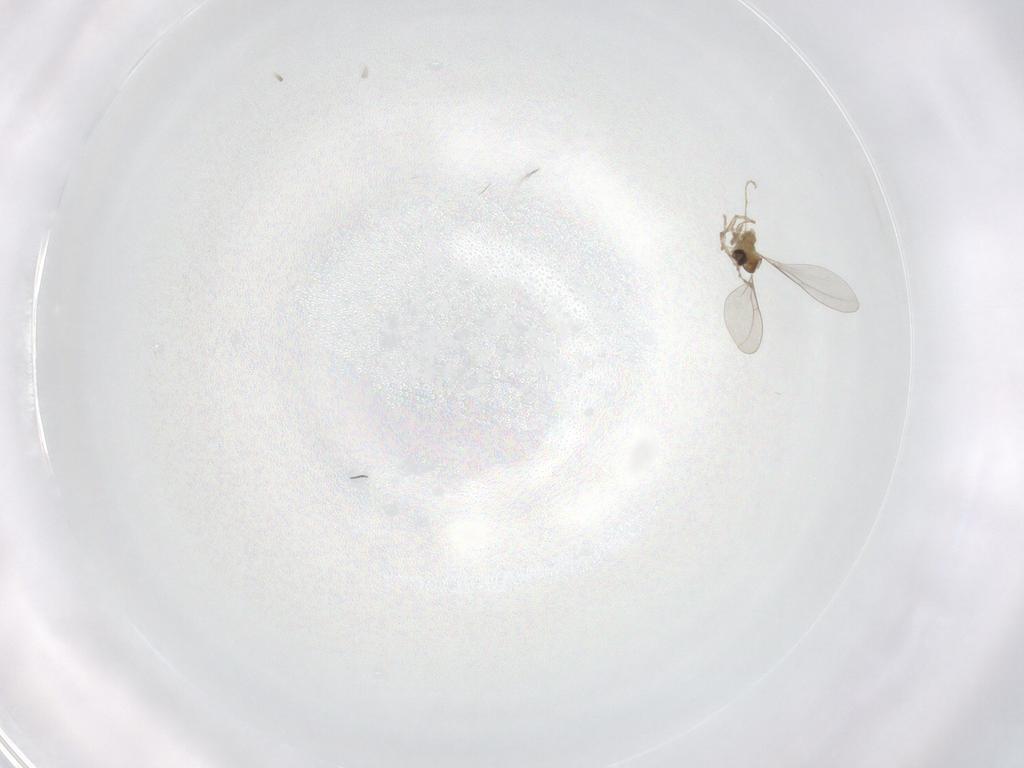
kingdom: Animalia
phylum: Arthropoda
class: Insecta
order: Diptera
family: Cecidomyiidae
